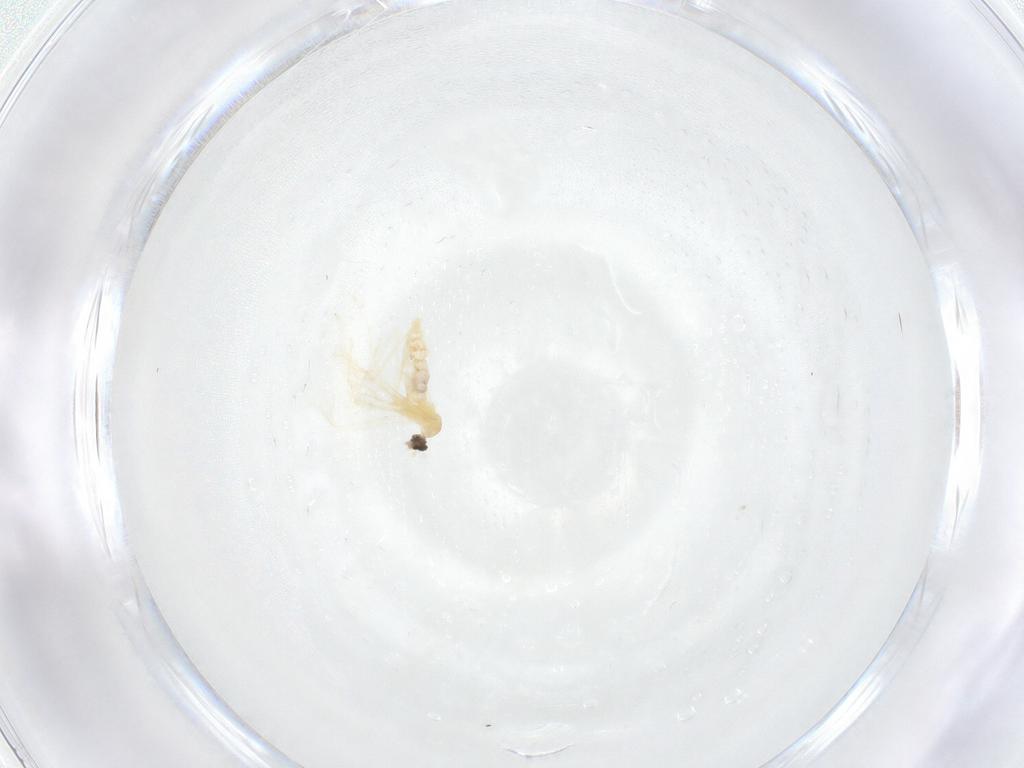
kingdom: Animalia
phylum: Arthropoda
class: Insecta
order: Diptera
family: Cecidomyiidae
